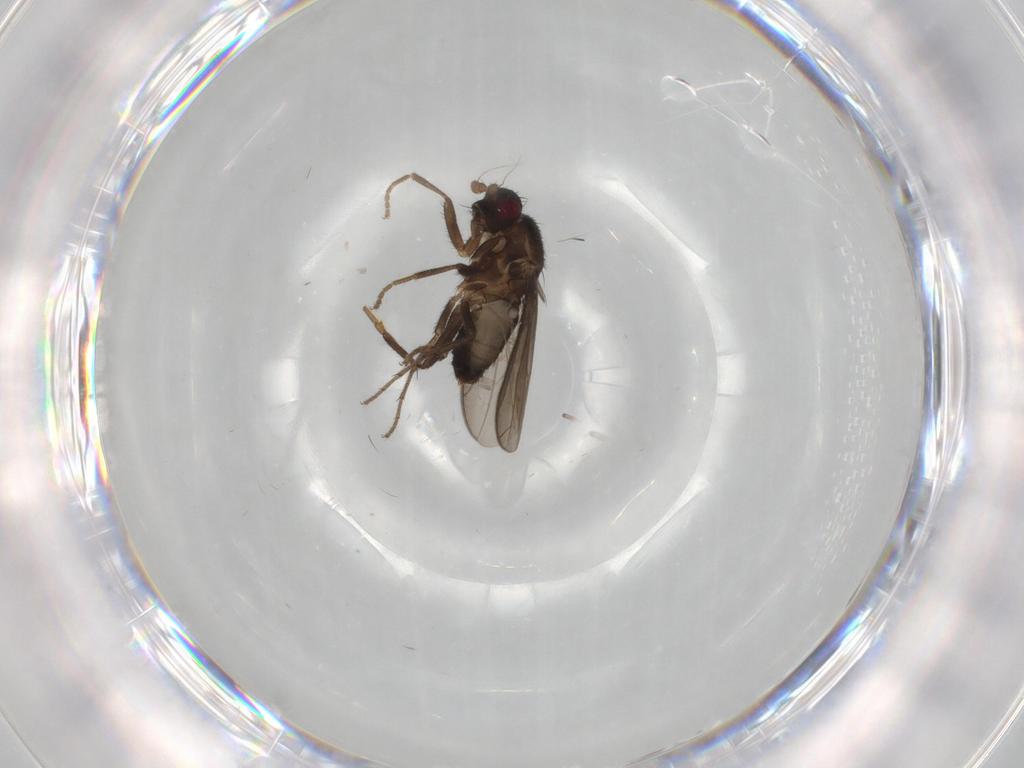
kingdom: Animalia
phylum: Arthropoda
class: Insecta
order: Diptera
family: Sphaeroceridae
